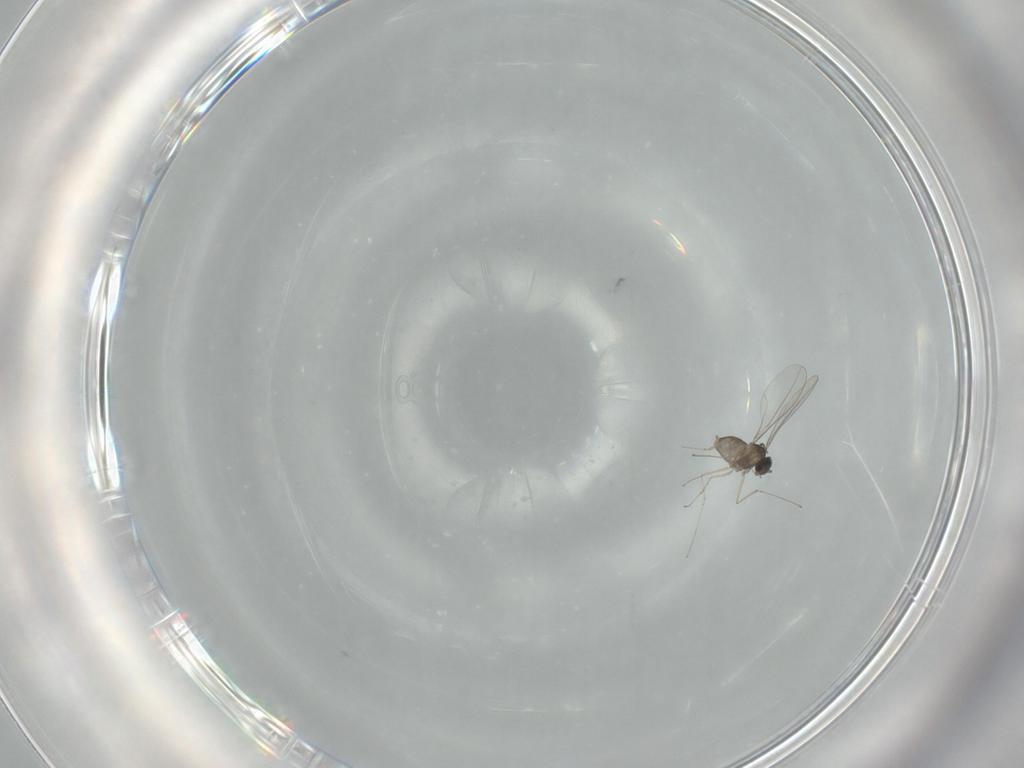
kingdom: Animalia
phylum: Arthropoda
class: Insecta
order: Diptera
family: Cecidomyiidae
